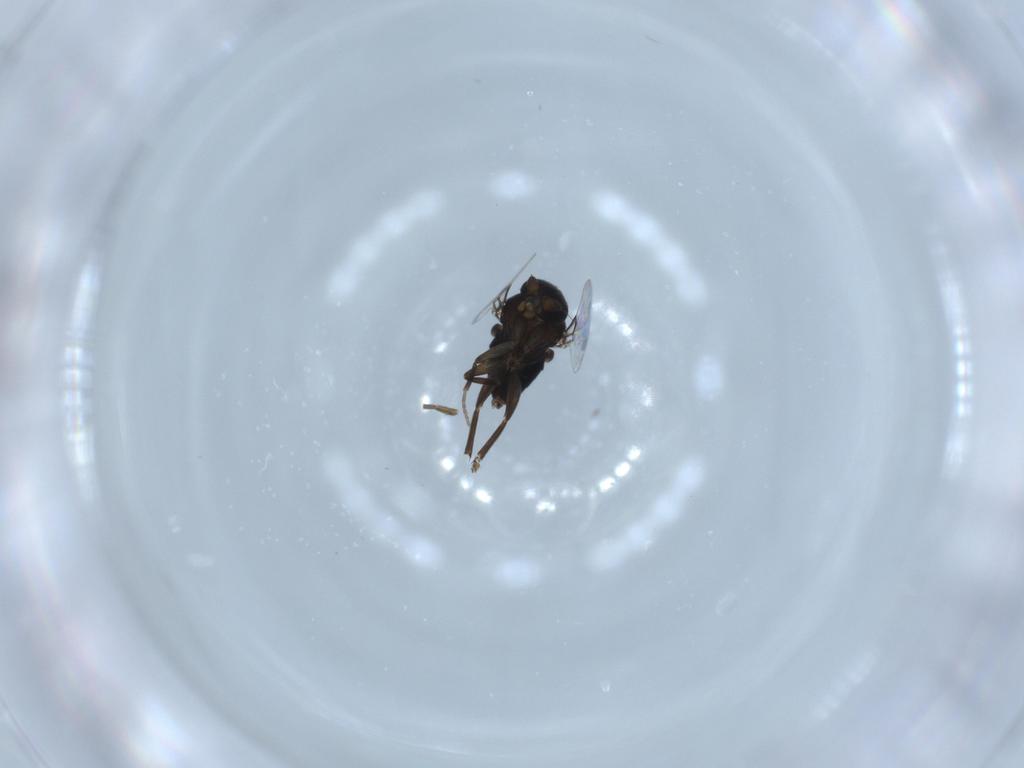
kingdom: Animalia
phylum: Arthropoda
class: Insecta
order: Diptera
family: Phoridae
